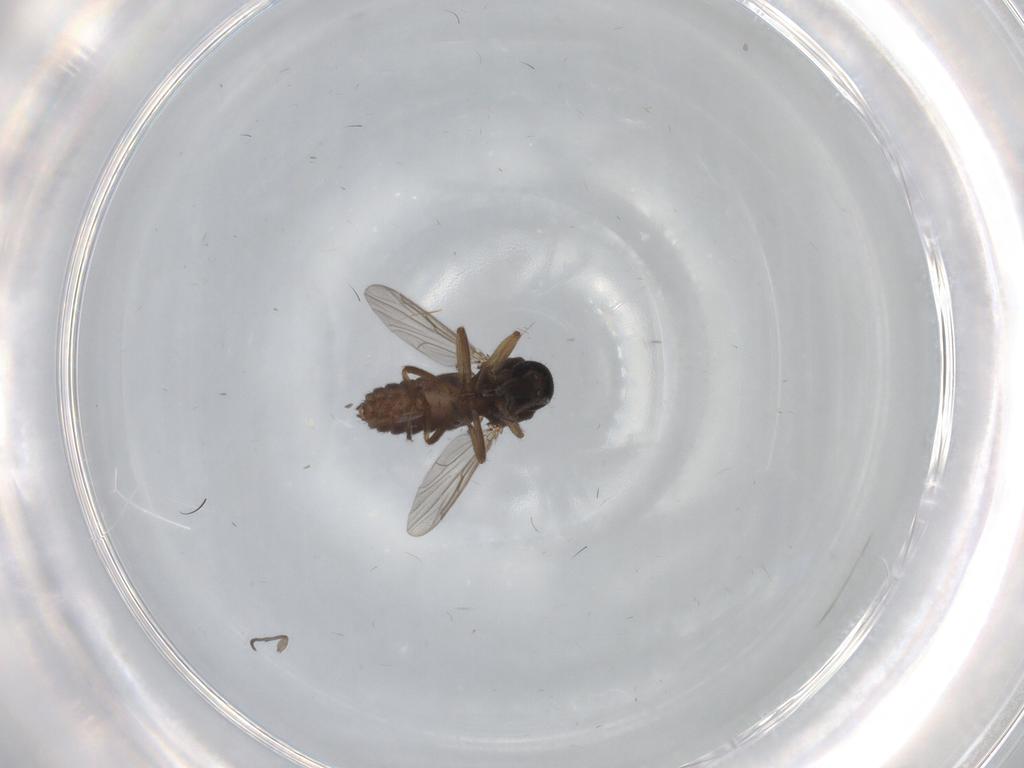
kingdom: Animalia
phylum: Arthropoda
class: Insecta
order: Diptera
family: Ceratopogonidae
